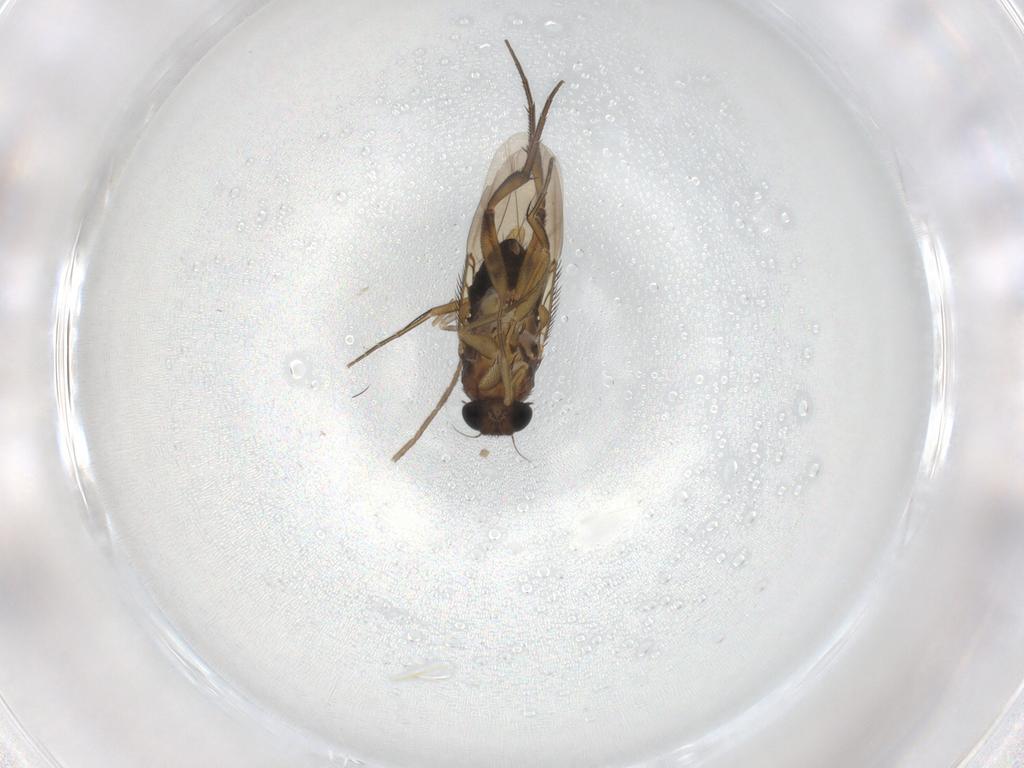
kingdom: Animalia
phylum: Arthropoda
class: Insecta
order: Diptera
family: Phoridae
